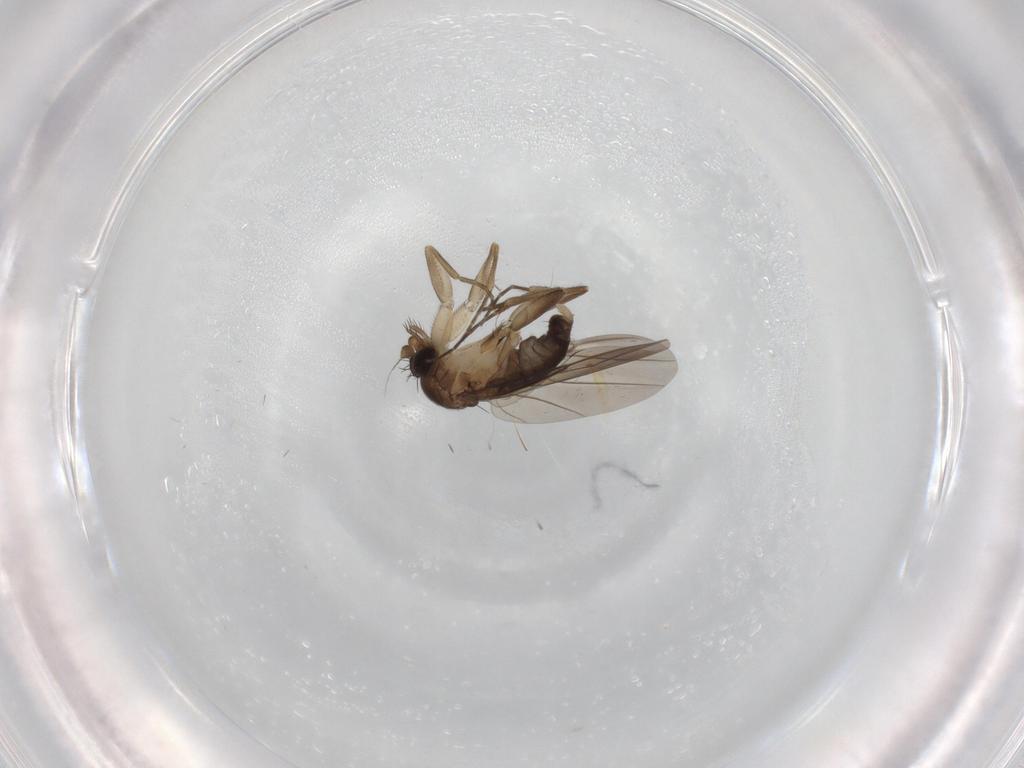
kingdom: Animalia
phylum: Arthropoda
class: Insecta
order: Diptera
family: Phoridae
